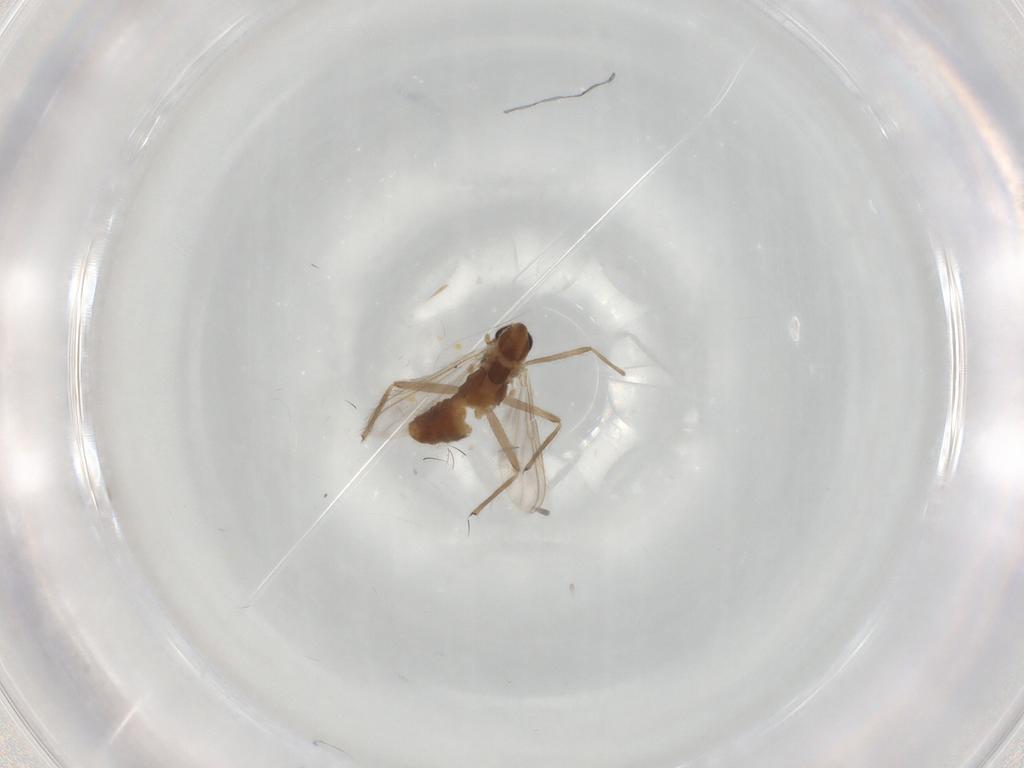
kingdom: Animalia
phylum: Arthropoda
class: Insecta
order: Diptera
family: Chironomidae
